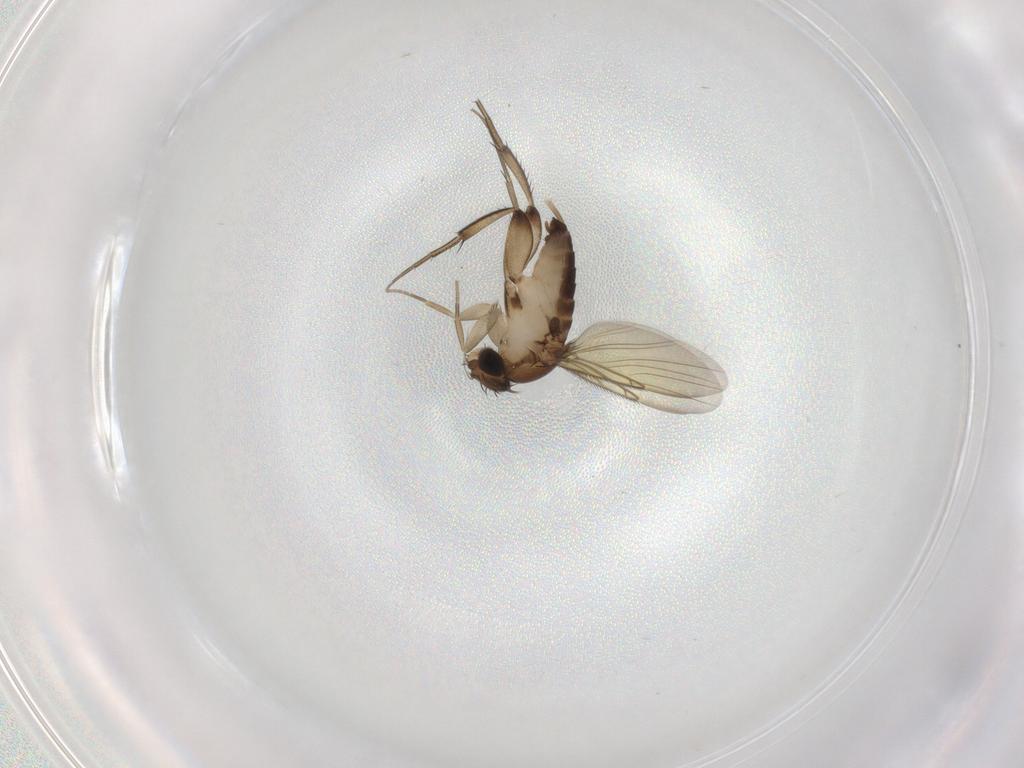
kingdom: Animalia
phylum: Arthropoda
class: Insecta
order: Diptera
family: Phoridae
